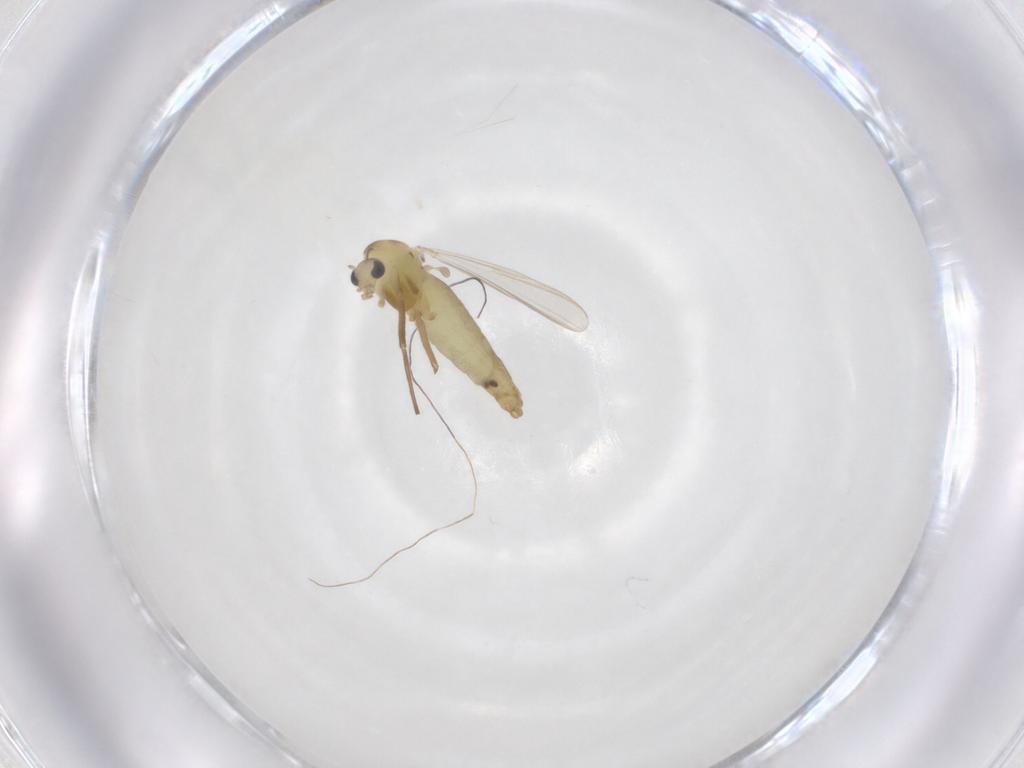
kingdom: Animalia
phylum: Arthropoda
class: Insecta
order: Diptera
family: Chironomidae
